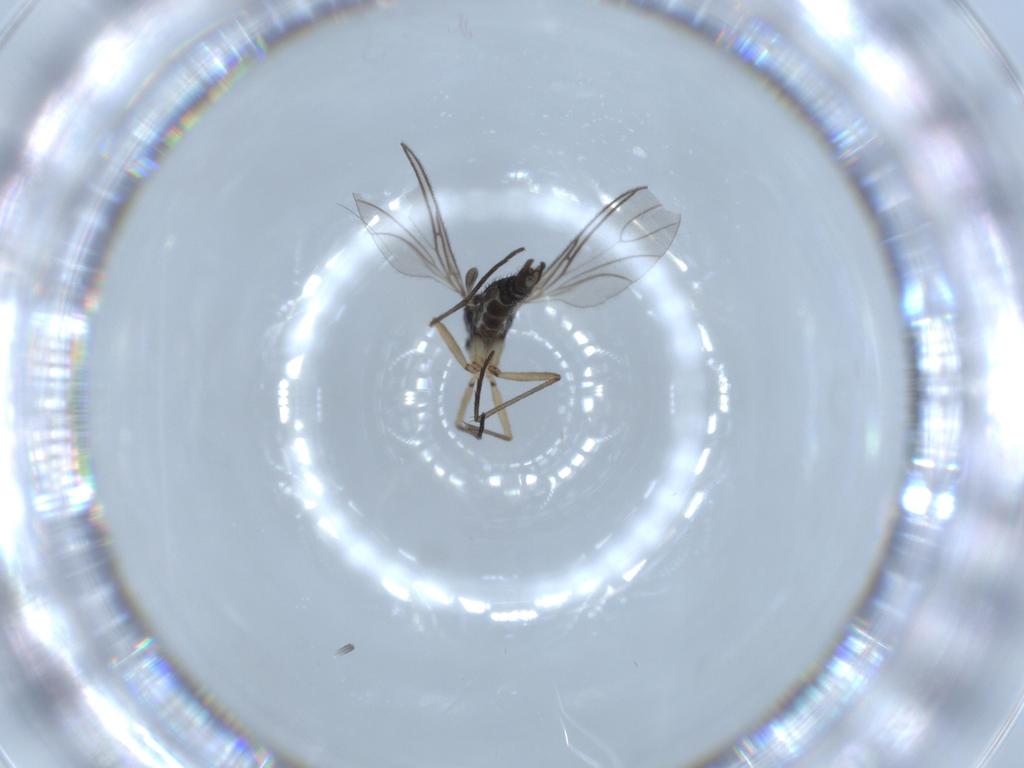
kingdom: Animalia
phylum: Arthropoda
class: Insecta
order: Diptera
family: Sciaridae
